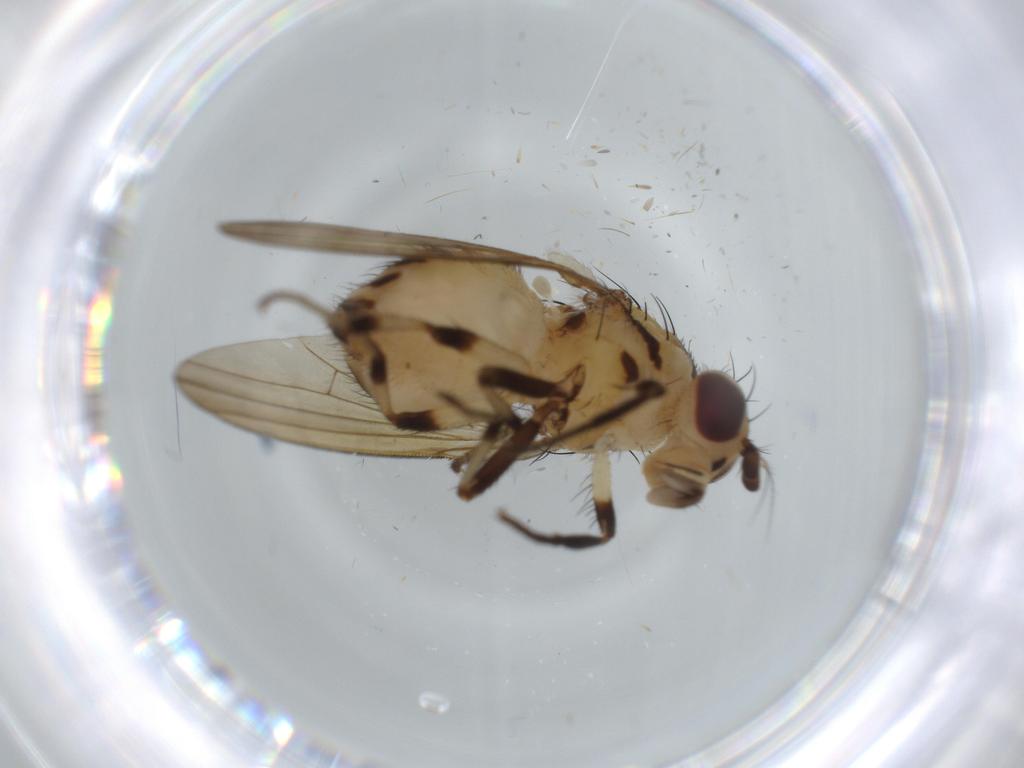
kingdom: Animalia
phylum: Arthropoda
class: Insecta
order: Diptera
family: Lauxaniidae
